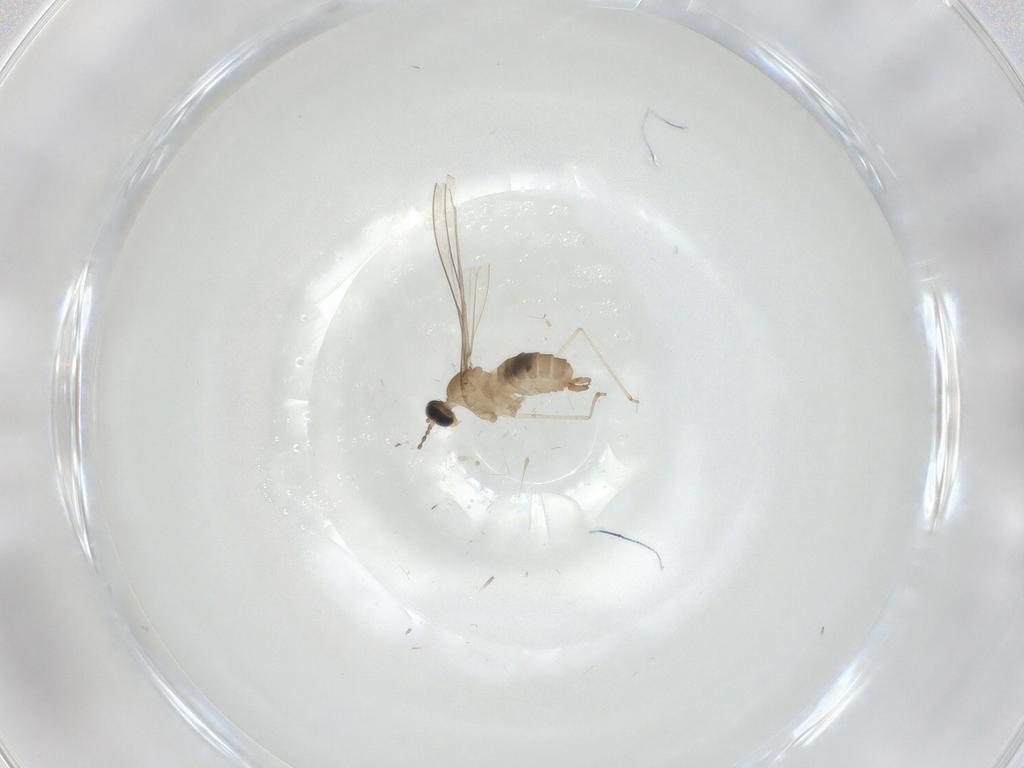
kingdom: Animalia
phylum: Arthropoda
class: Insecta
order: Diptera
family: Cecidomyiidae
